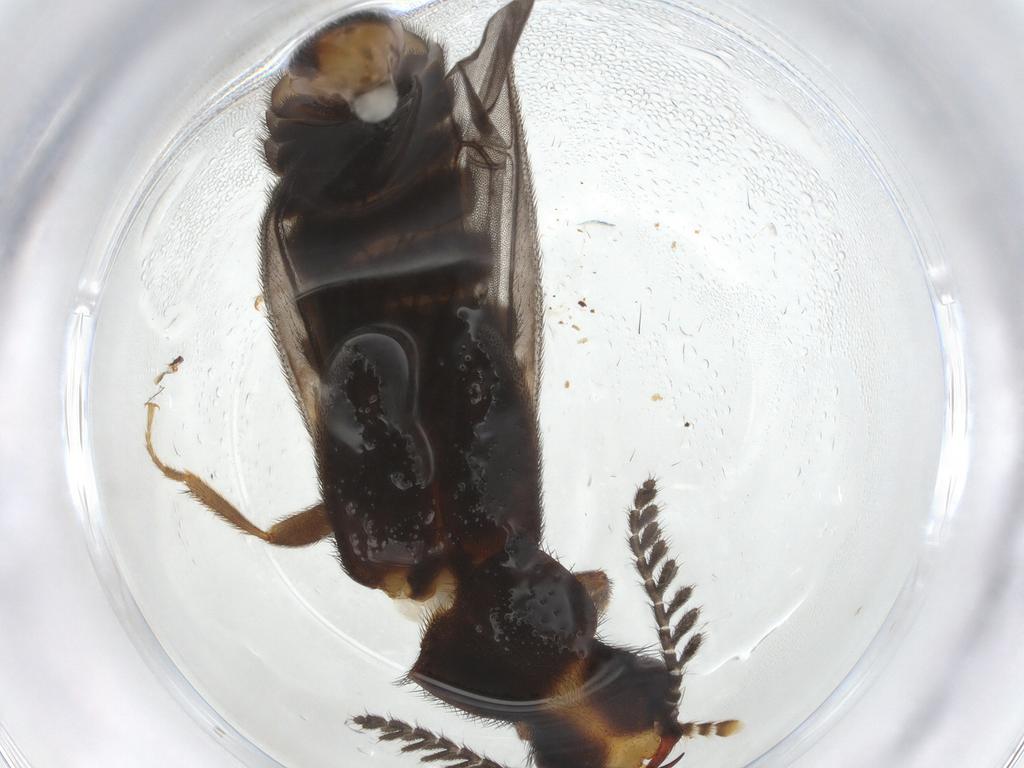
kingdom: Animalia
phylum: Arthropoda
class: Insecta
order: Coleoptera
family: Phengodidae
